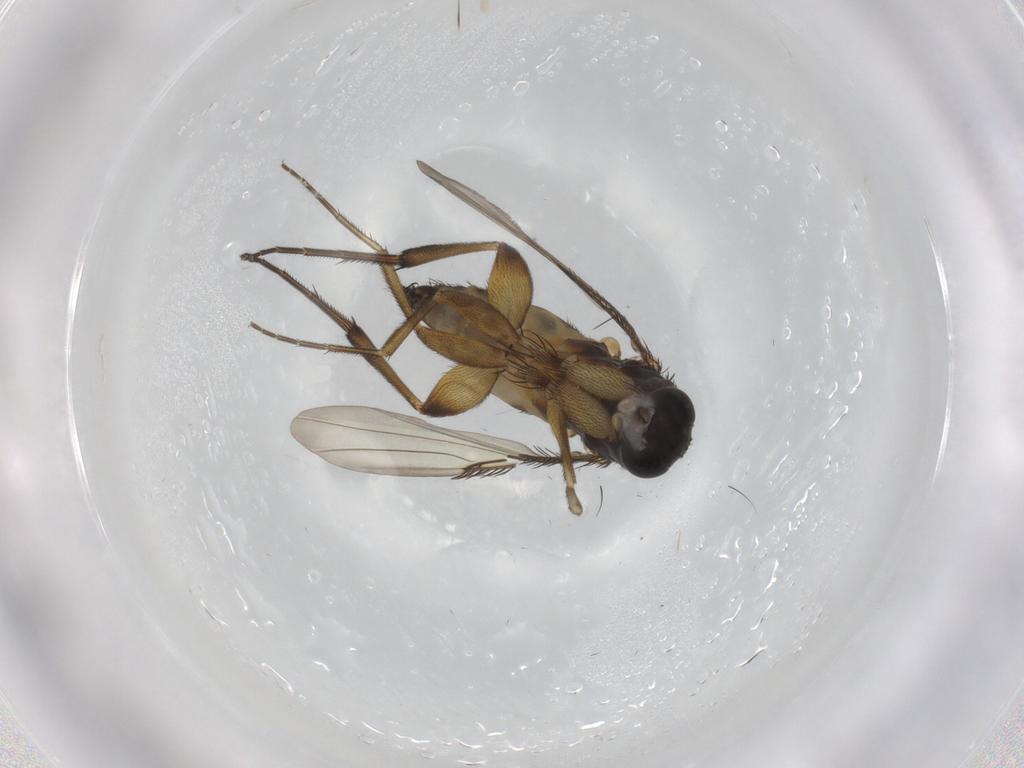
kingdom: Animalia
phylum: Arthropoda
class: Insecta
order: Diptera
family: Phoridae
